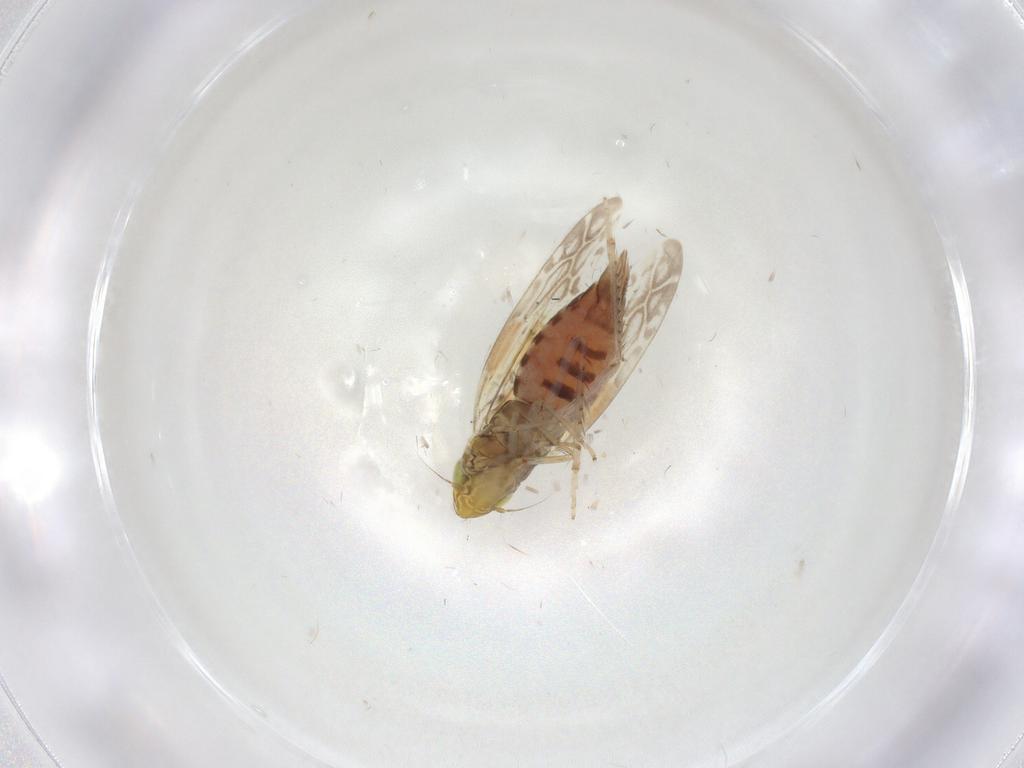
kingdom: Animalia
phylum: Arthropoda
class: Insecta
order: Hemiptera
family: Cicadellidae
